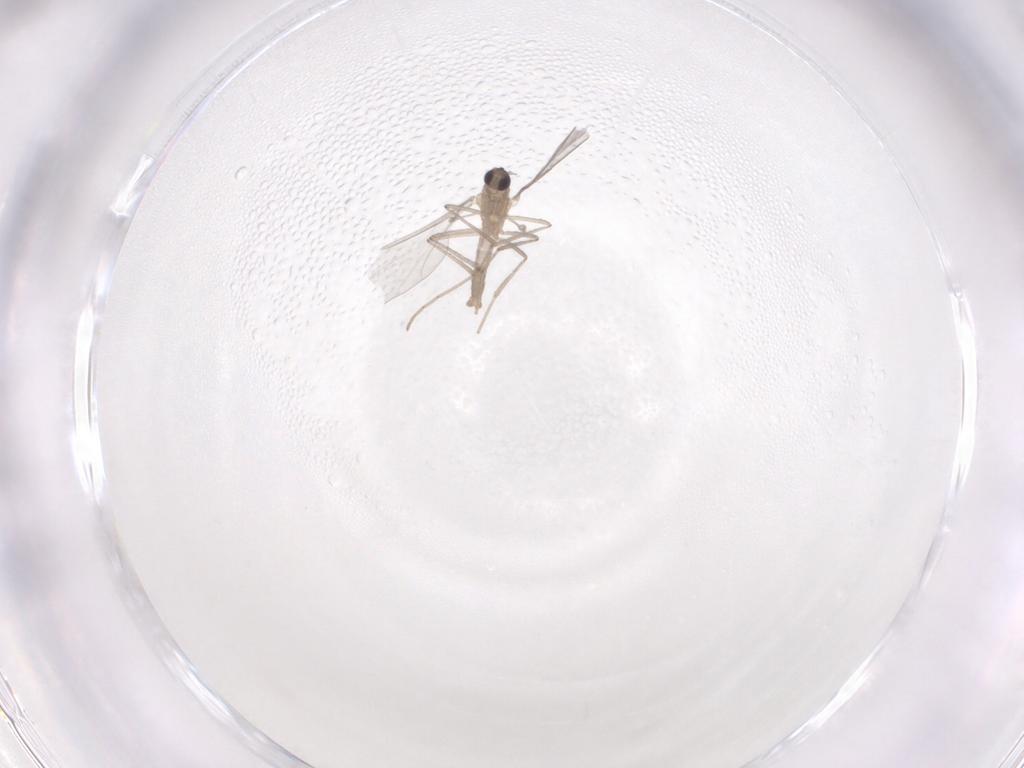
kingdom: Animalia
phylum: Arthropoda
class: Insecta
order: Diptera
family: Cecidomyiidae
